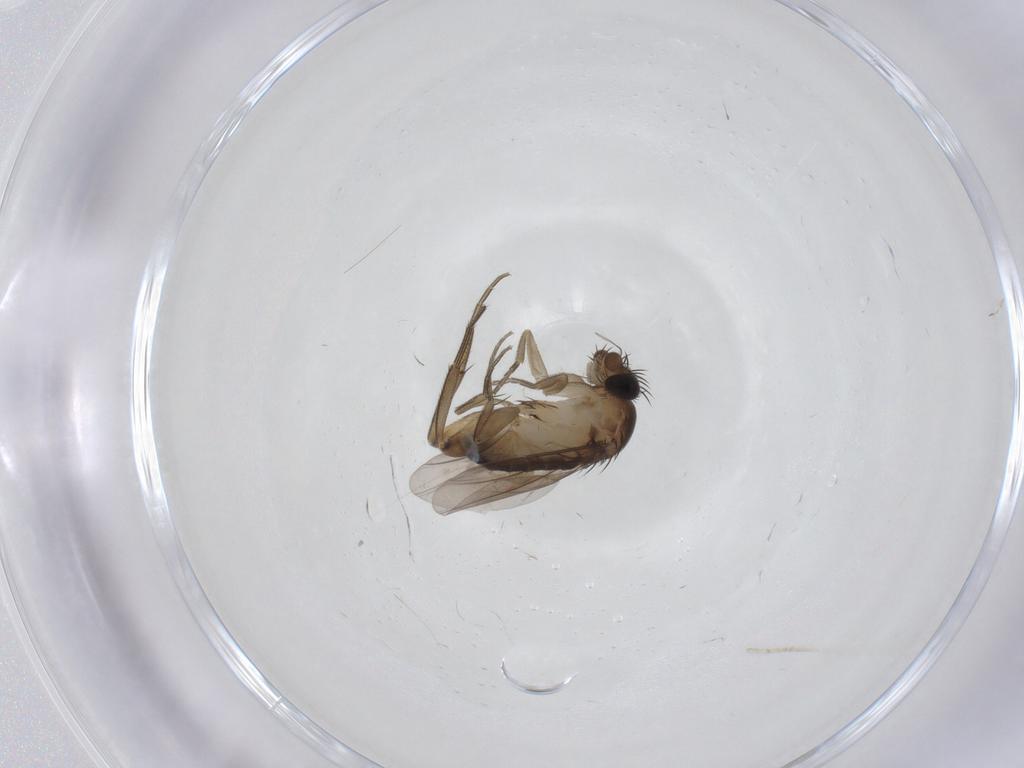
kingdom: Animalia
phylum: Arthropoda
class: Insecta
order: Diptera
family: Phoridae
